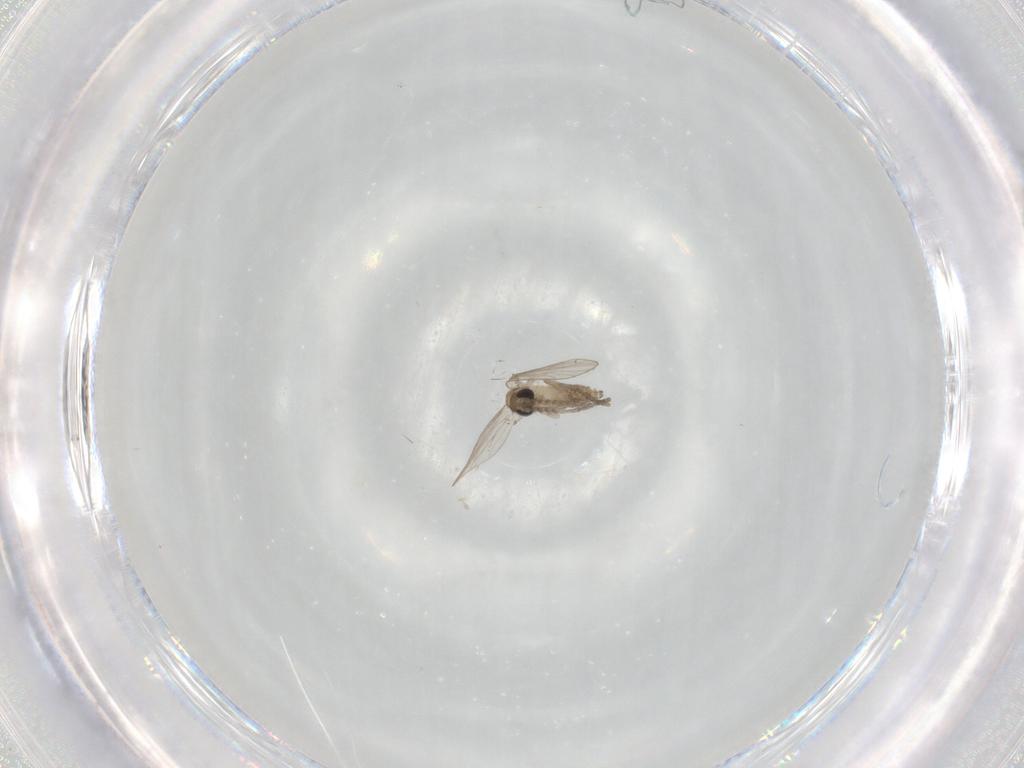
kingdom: Animalia
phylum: Arthropoda
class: Insecta
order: Diptera
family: Psychodidae
